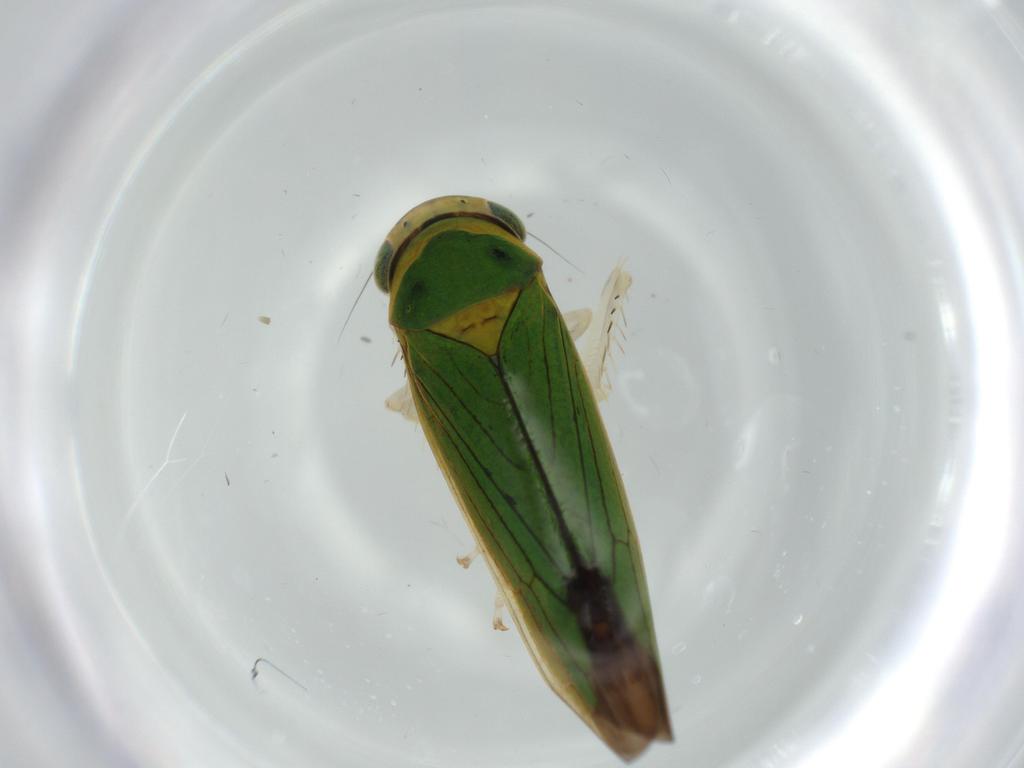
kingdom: Animalia
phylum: Arthropoda
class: Insecta
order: Hemiptera
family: Cicadellidae
